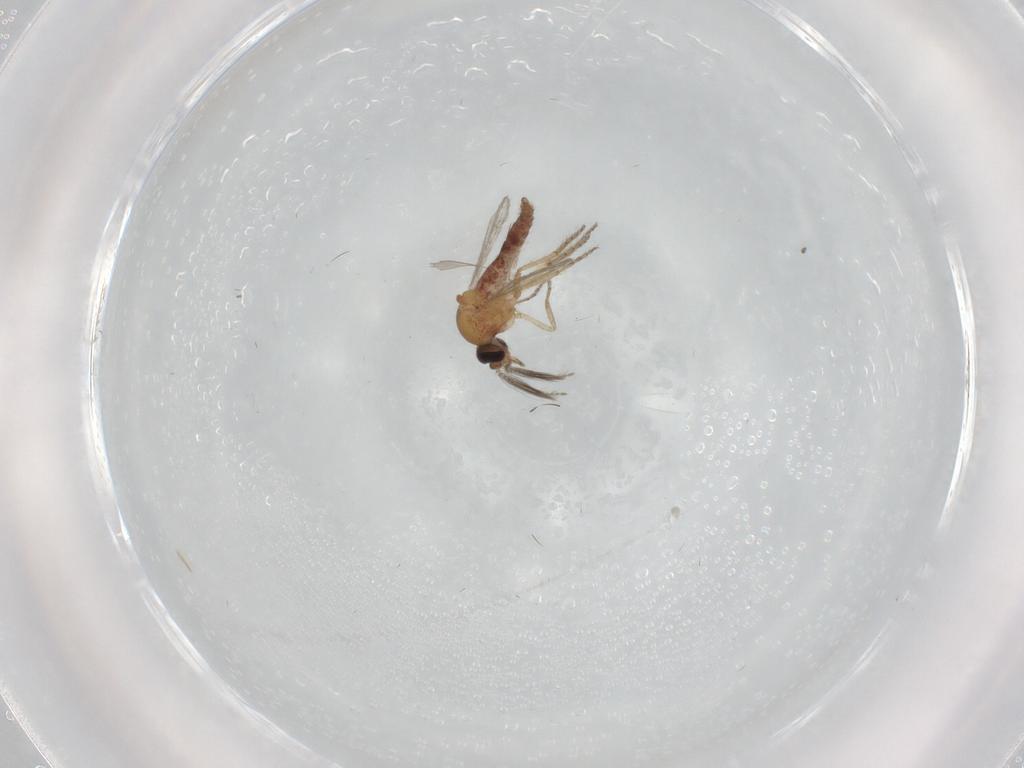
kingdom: Animalia
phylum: Arthropoda
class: Insecta
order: Diptera
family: Ceratopogonidae
